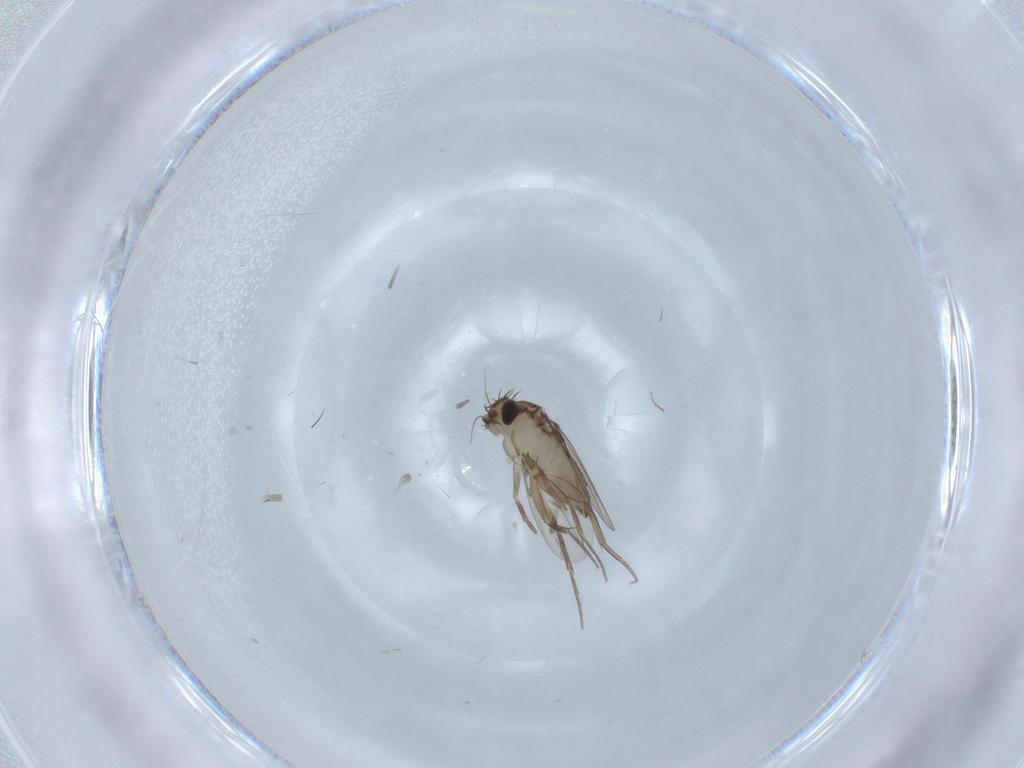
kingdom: Animalia
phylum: Arthropoda
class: Insecta
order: Diptera
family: Phoridae
